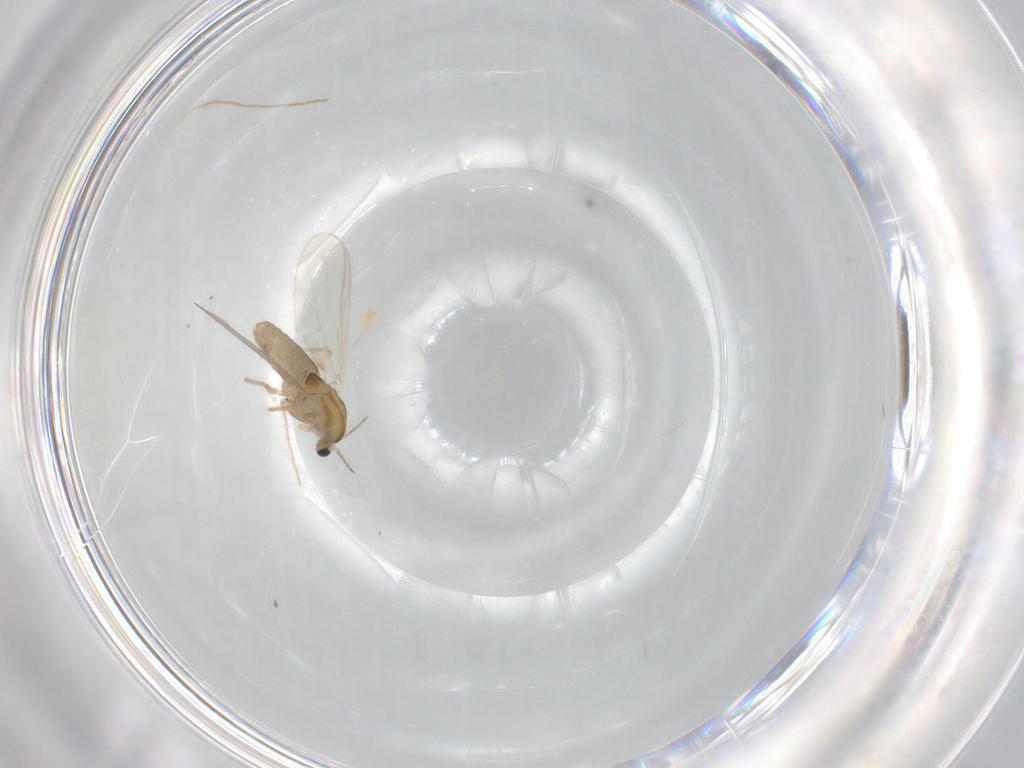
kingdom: Animalia
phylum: Arthropoda
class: Insecta
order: Diptera
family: Chironomidae
